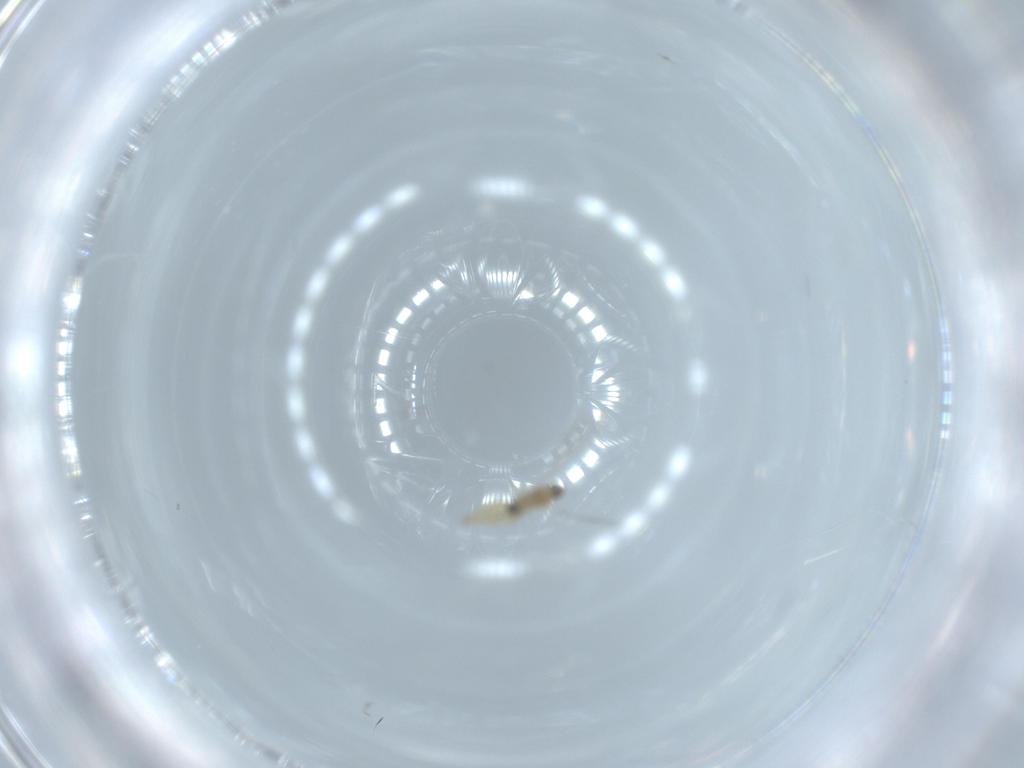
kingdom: Animalia
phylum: Arthropoda
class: Insecta
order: Diptera
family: Cecidomyiidae
